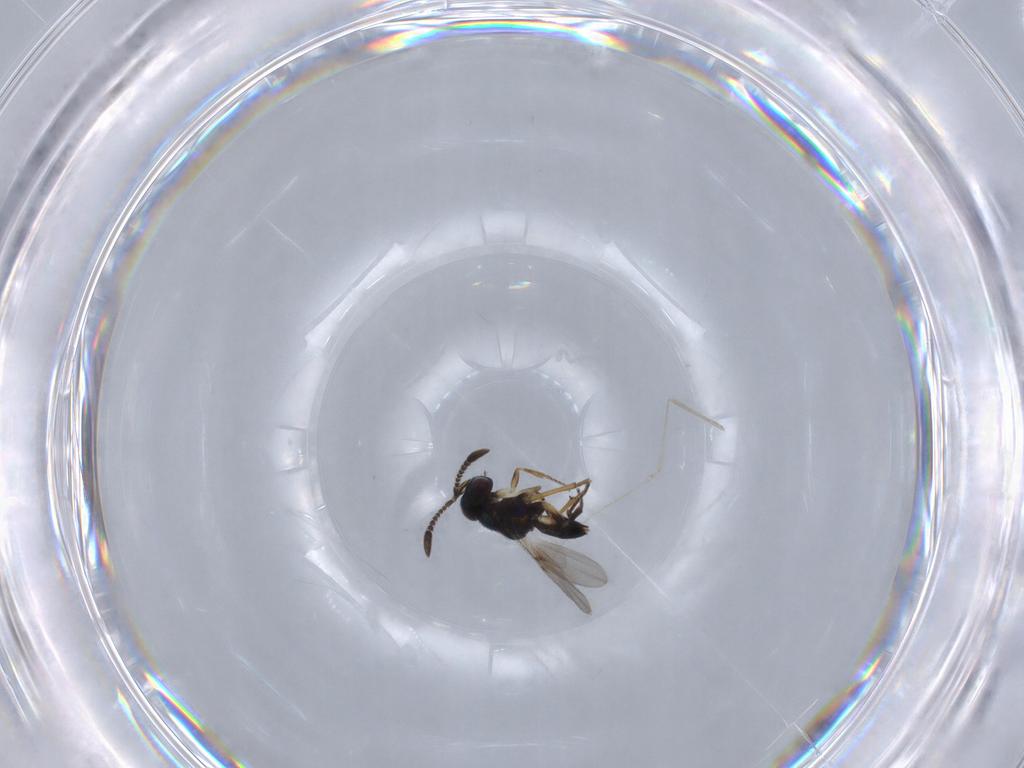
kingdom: Animalia
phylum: Arthropoda
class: Insecta
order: Hymenoptera
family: Encyrtidae
